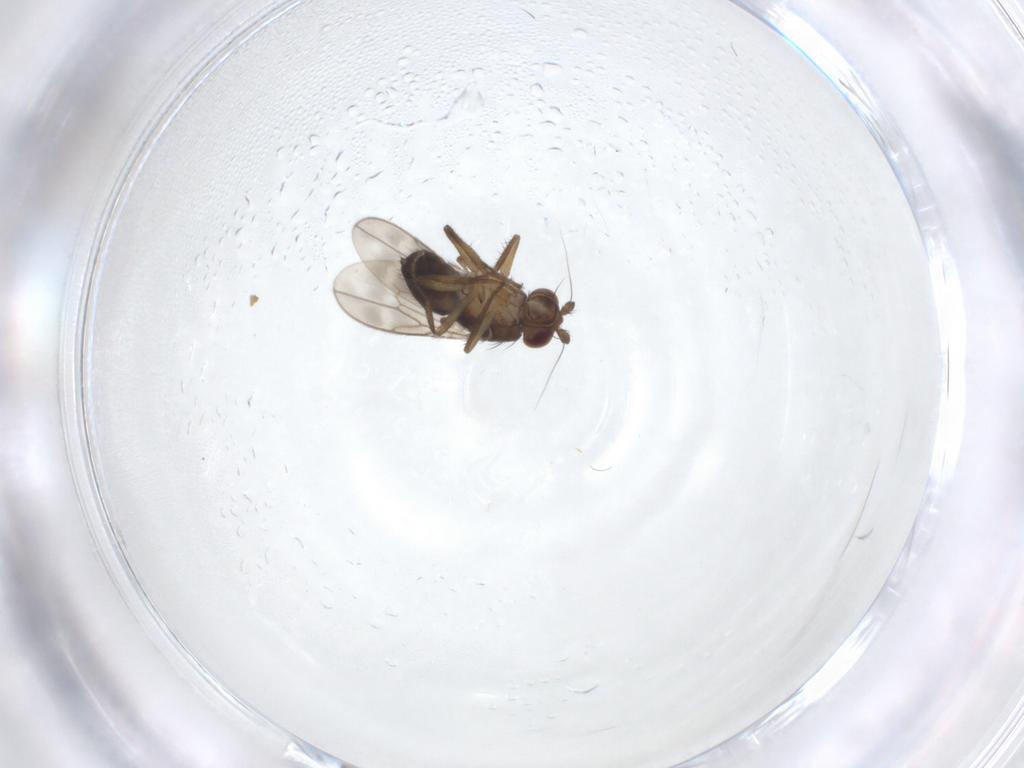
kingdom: Animalia
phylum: Arthropoda
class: Insecta
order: Diptera
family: Sphaeroceridae
